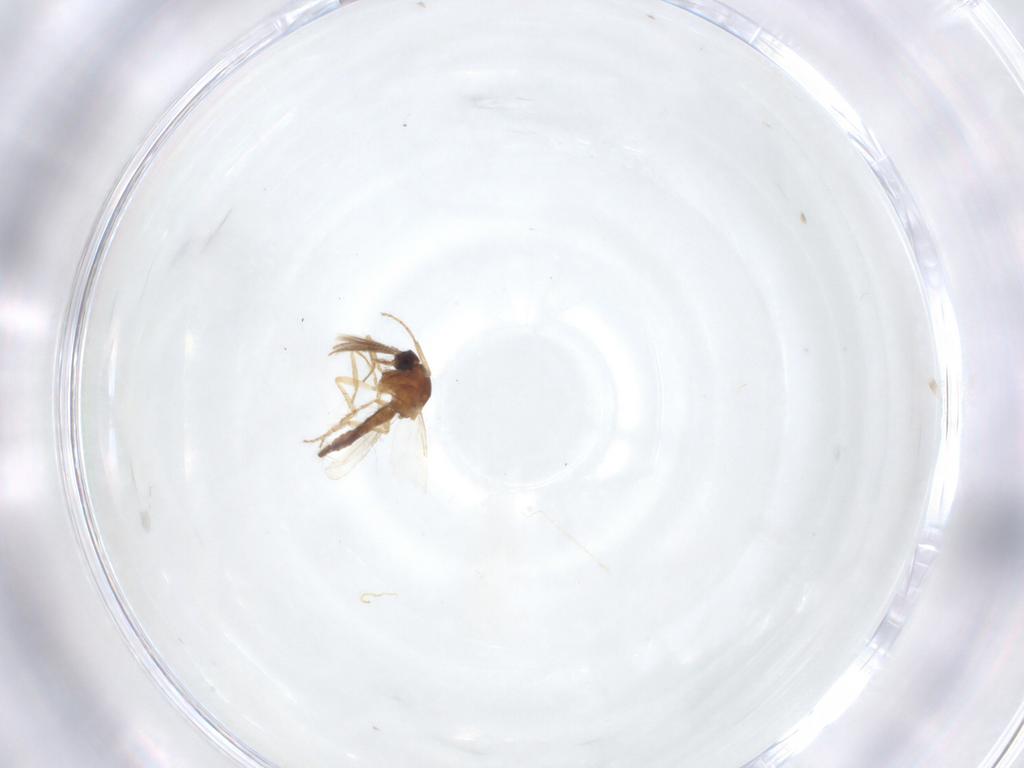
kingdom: Animalia
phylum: Arthropoda
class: Insecta
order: Diptera
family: Ceratopogonidae
